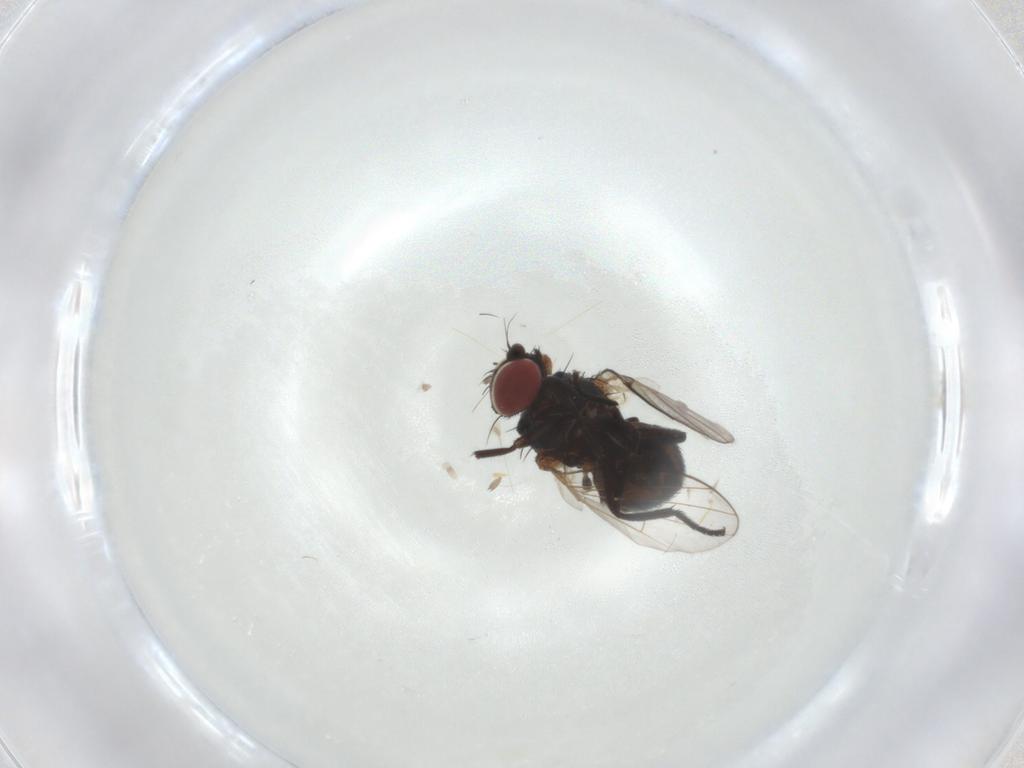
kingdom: Animalia
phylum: Arthropoda
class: Insecta
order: Diptera
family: Agromyzidae
